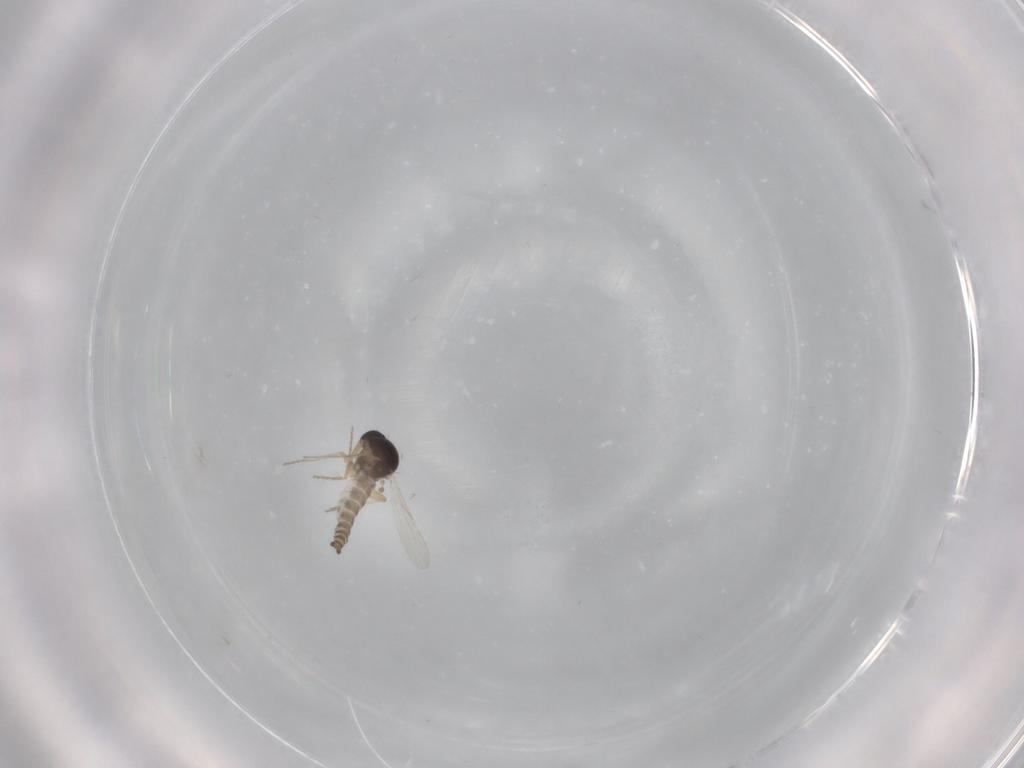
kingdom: Animalia
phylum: Arthropoda
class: Insecta
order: Diptera
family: Ceratopogonidae
